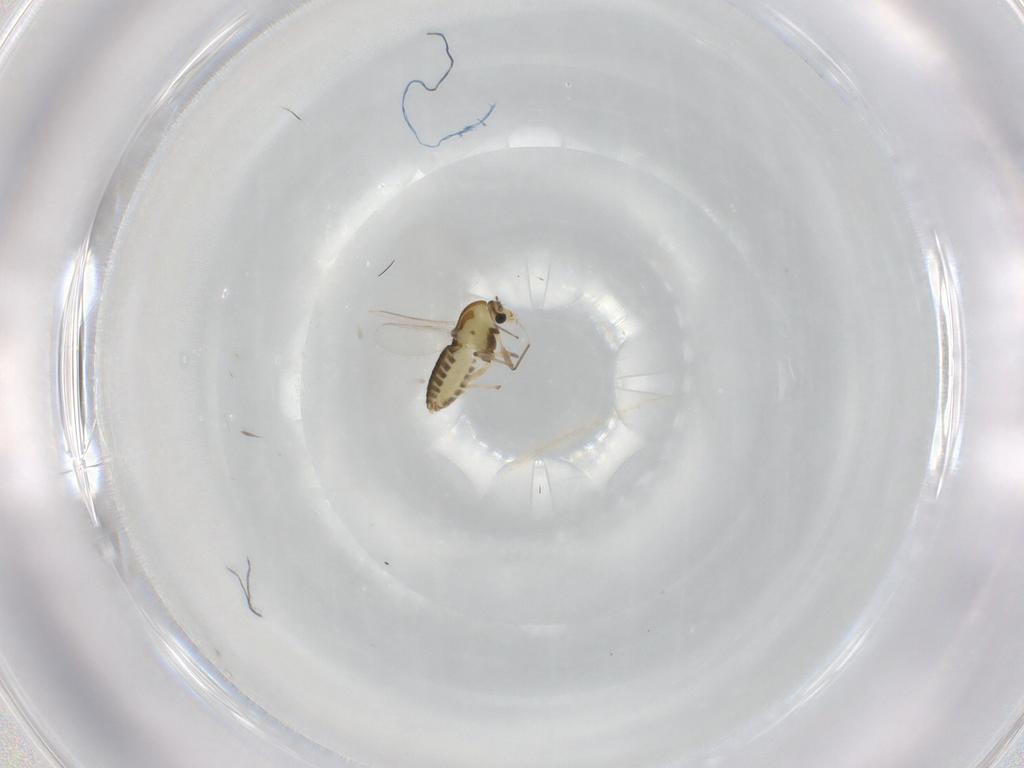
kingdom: Animalia
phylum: Arthropoda
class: Insecta
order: Diptera
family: Chironomidae
